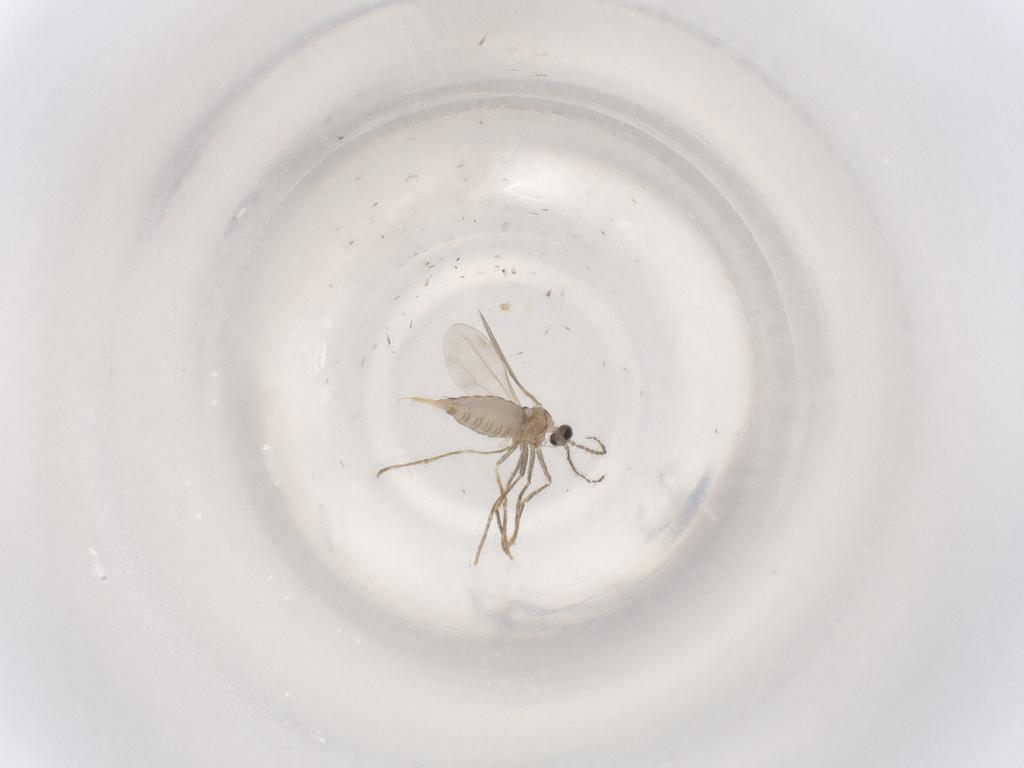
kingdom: Animalia
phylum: Arthropoda
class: Insecta
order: Diptera
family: Cecidomyiidae
